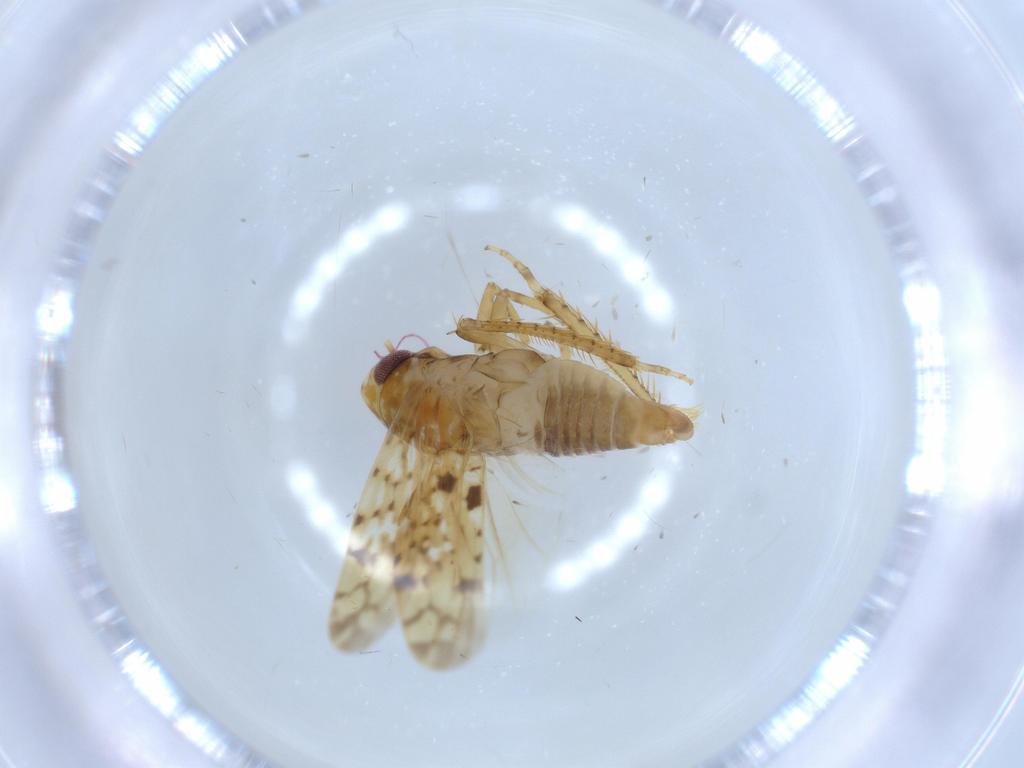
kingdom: Animalia
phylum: Arthropoda
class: Insecta
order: Hemiptera
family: Cicadellidae
